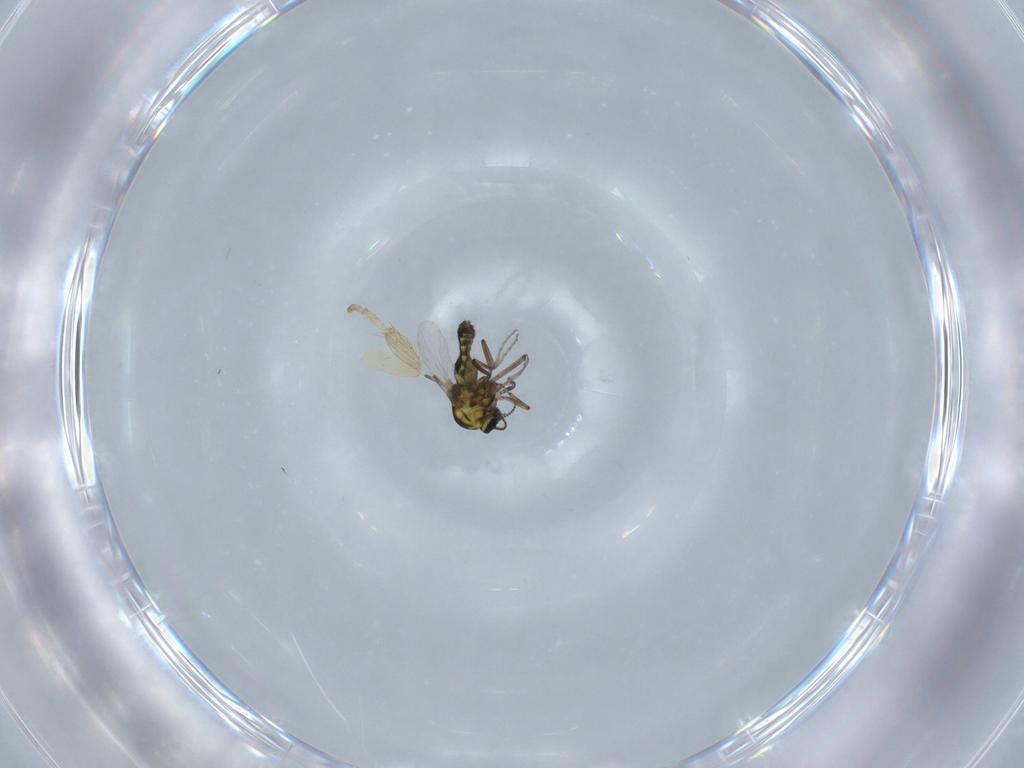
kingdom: Animalia
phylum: Arthropoda
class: Insecta
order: Diptera
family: Ceratopogonidae
